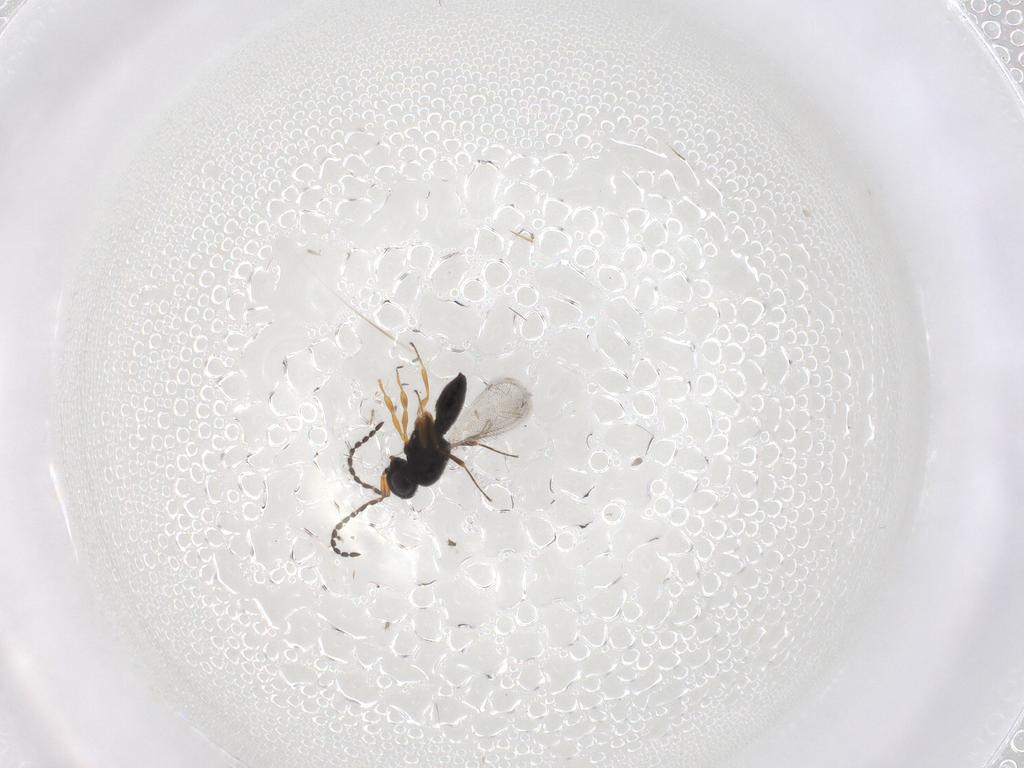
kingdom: Animalia
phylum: Arthropoda
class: Insecta
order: Hymenoptera
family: Scelionidae
